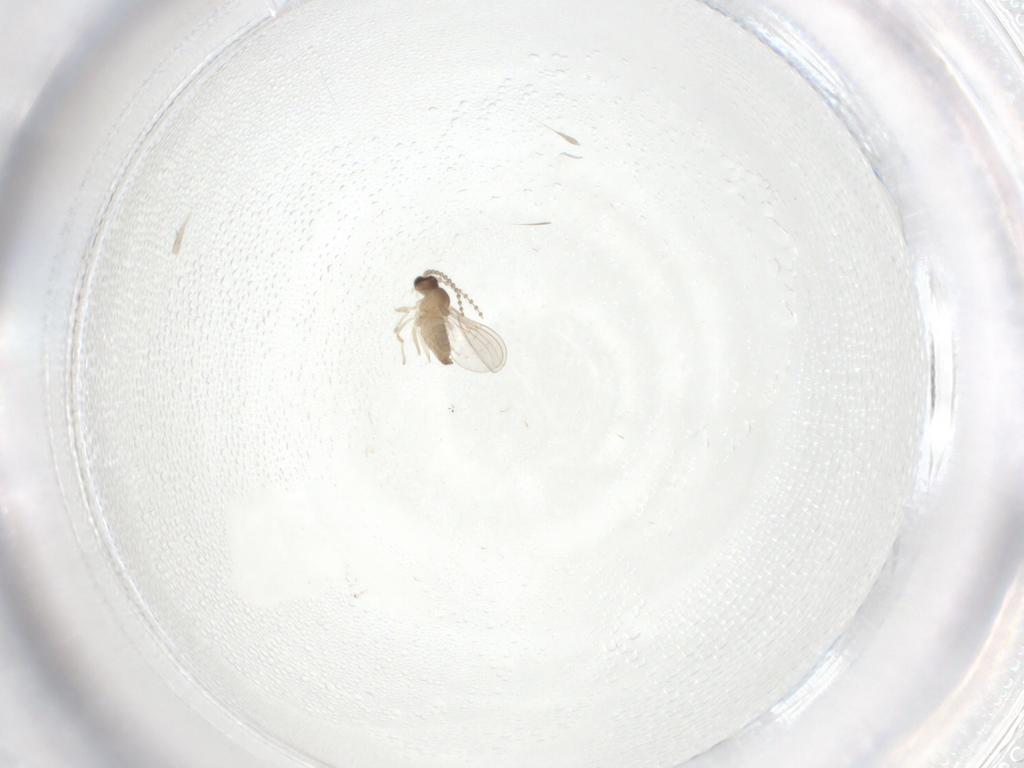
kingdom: Animalia
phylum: Arthropoda
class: Insecta
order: Diptera
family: Cecidomyiidae
